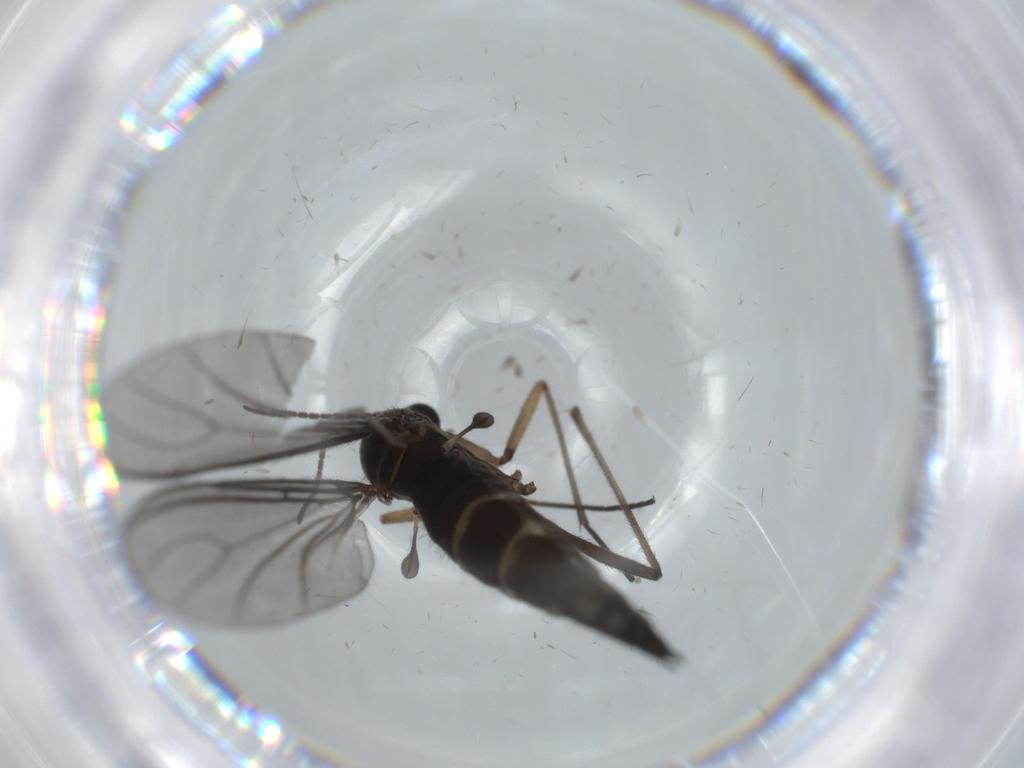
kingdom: Animalia
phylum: Arthropoda
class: Insecta
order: Diptera
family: Sciaridae
